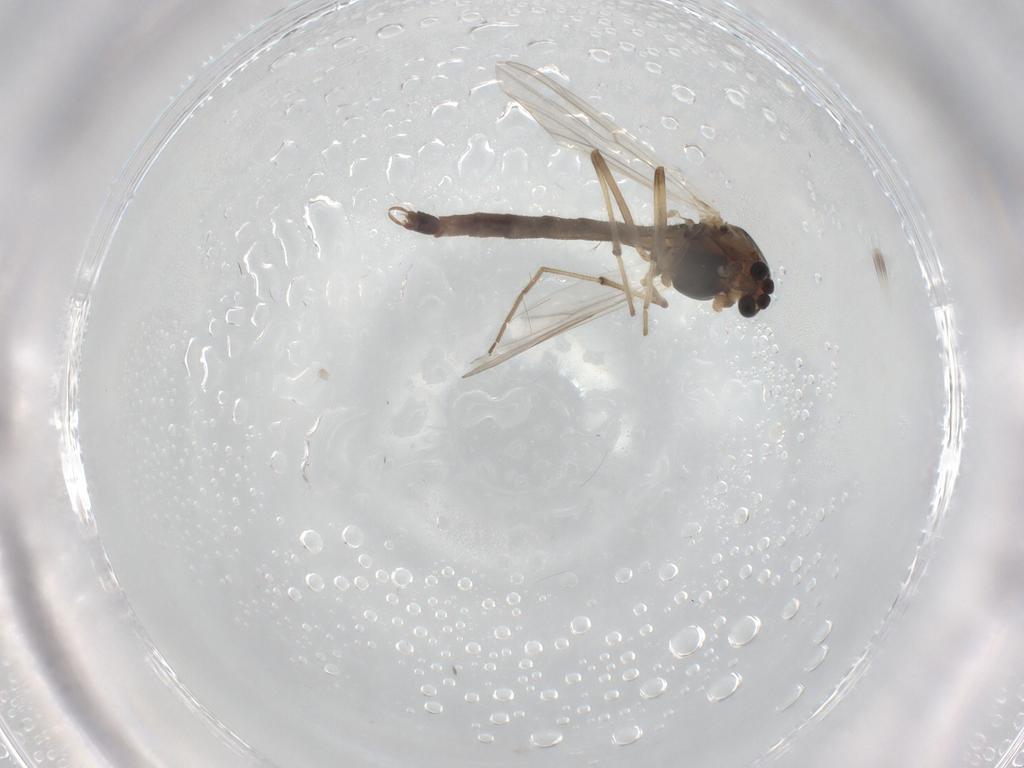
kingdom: Animalia
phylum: Arthropoda
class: Insecta
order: Diptera
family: Chironomidae
